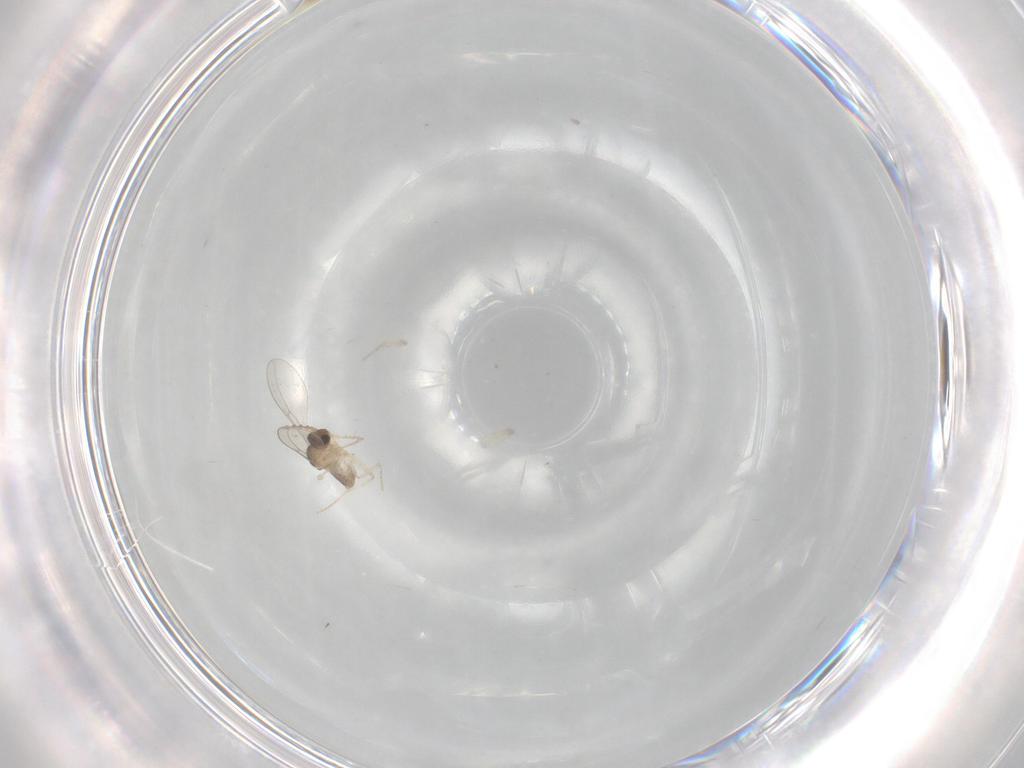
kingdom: Animalia
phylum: Arthropoda
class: Insecta
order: Diptera
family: Cecidomyiidae
